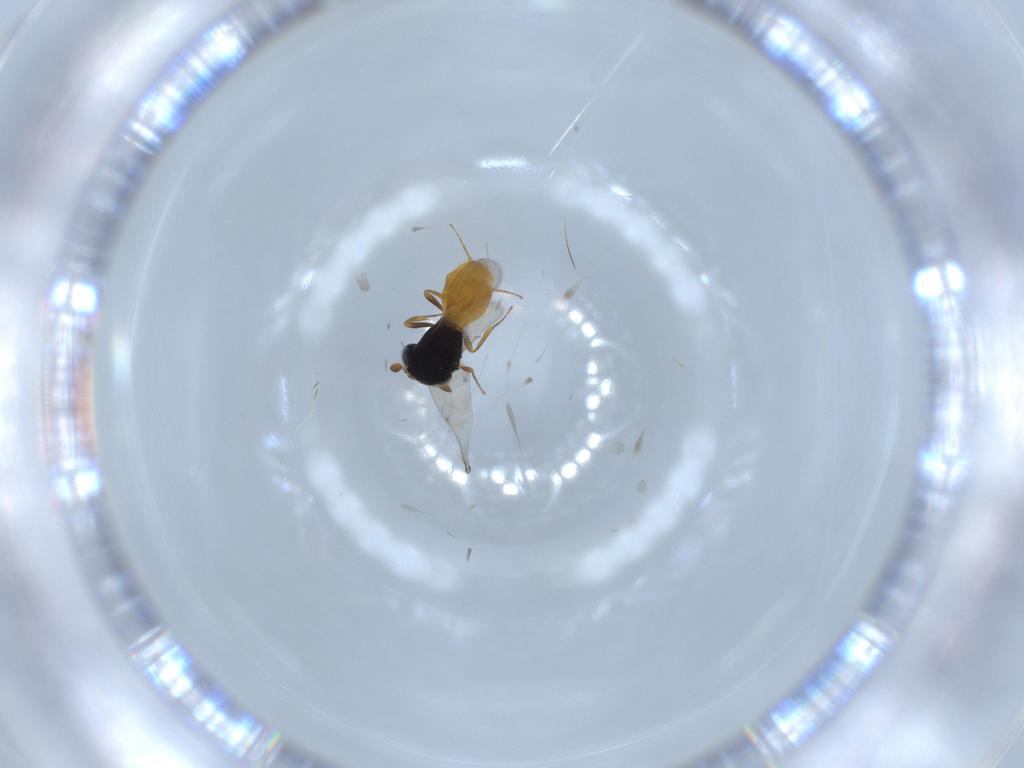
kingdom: Animalia
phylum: Arthropoda
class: Insecta
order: Hymenoptera
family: Scelionidae
